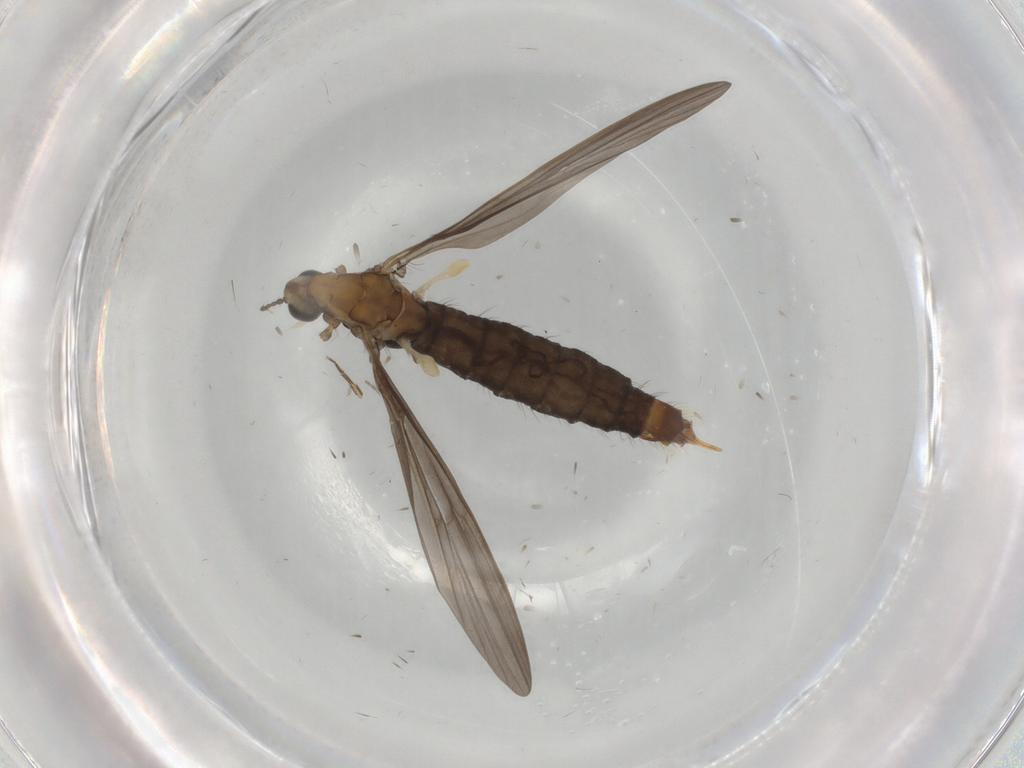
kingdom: Animalia
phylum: Arthropoda
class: Insecta
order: Diptera
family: Limoniidae
